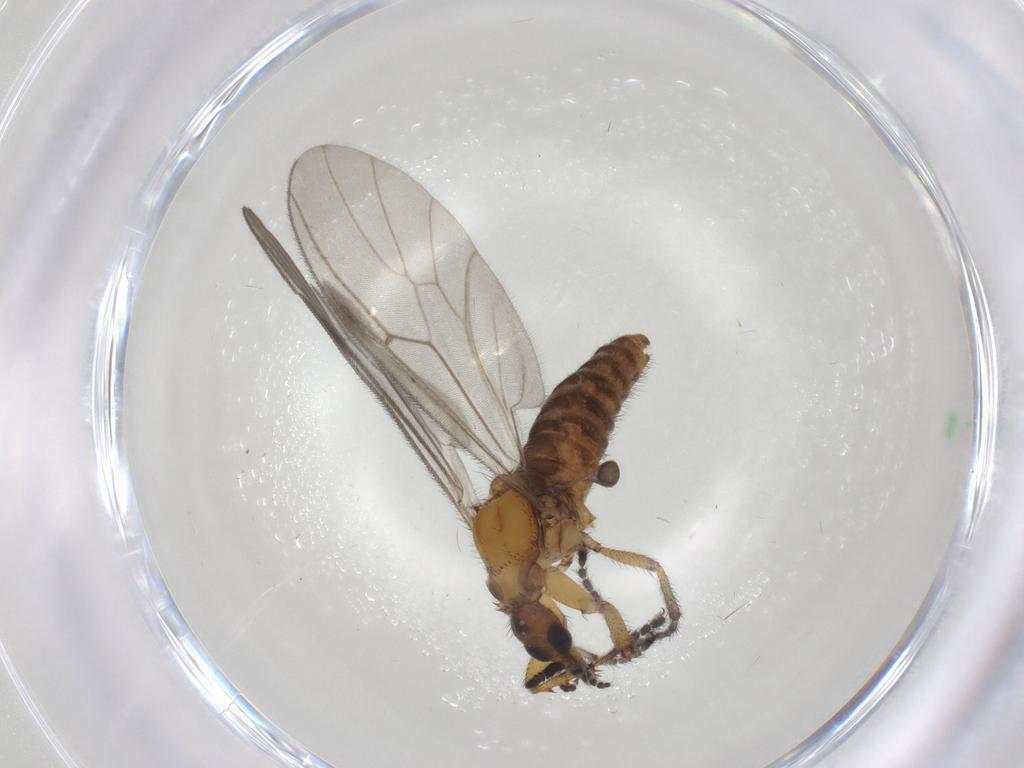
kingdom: Animalia
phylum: Arthropoda
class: Insecta
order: Diptera
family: Bibionidae
